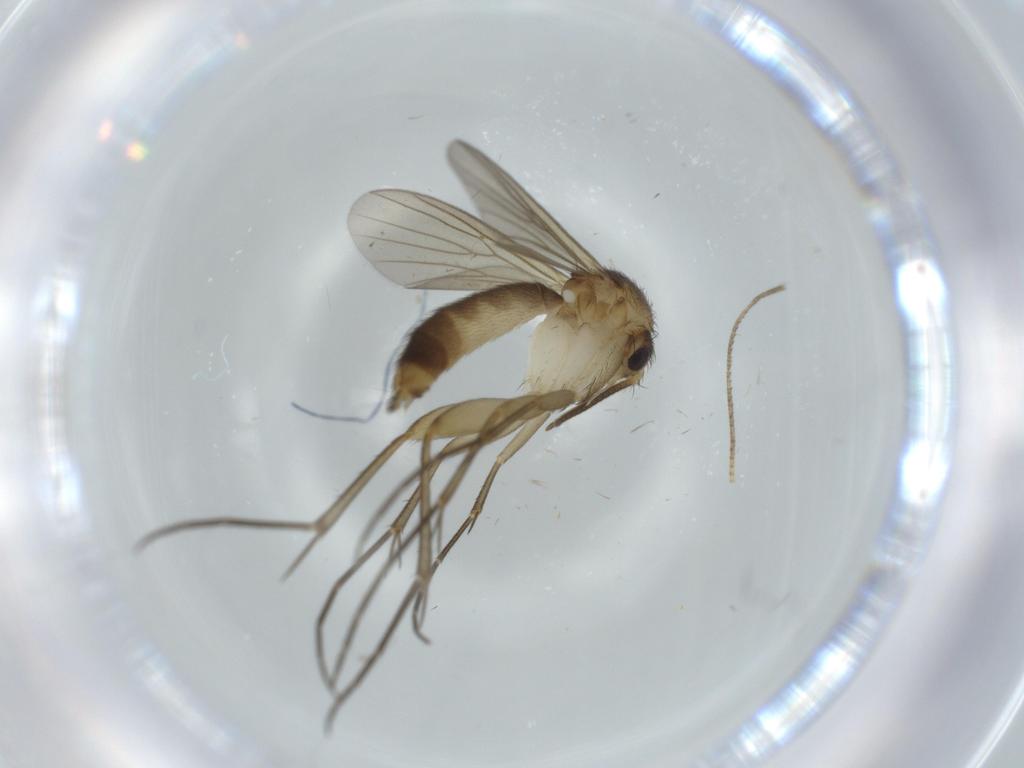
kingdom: Animalia
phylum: Arthropoda
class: Insecta
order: Diptera
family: Mycetophilidae
